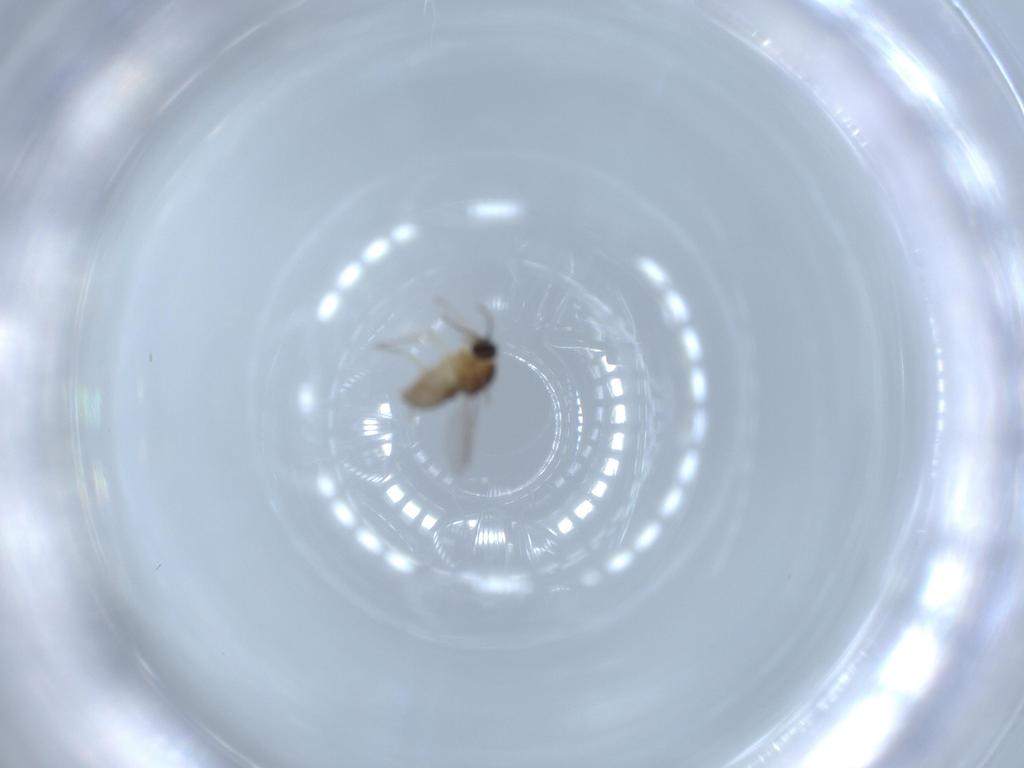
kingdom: Animalia
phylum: Arthropoda
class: Insecta
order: Diptera
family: Ceratopogonidae
